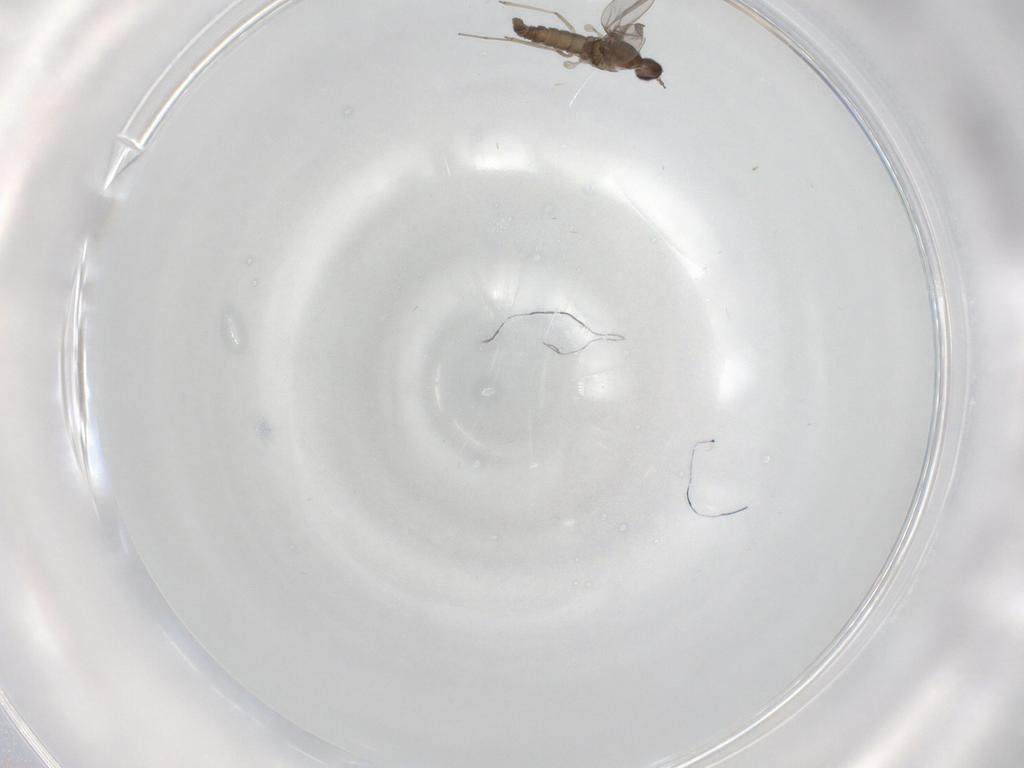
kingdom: Animalia
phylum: Arthropoda
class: Insecta
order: Diptera
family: Cecidomyiidae
